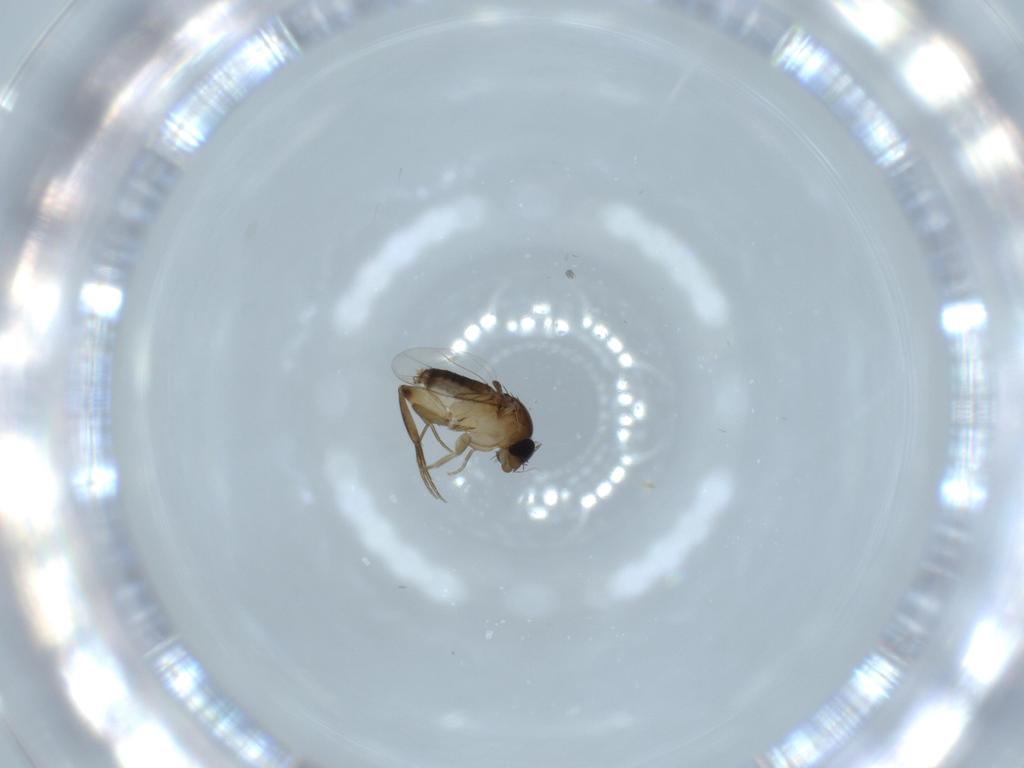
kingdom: Animalia
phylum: Arthropoda
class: Insecta
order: Diptera
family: Phoridae
